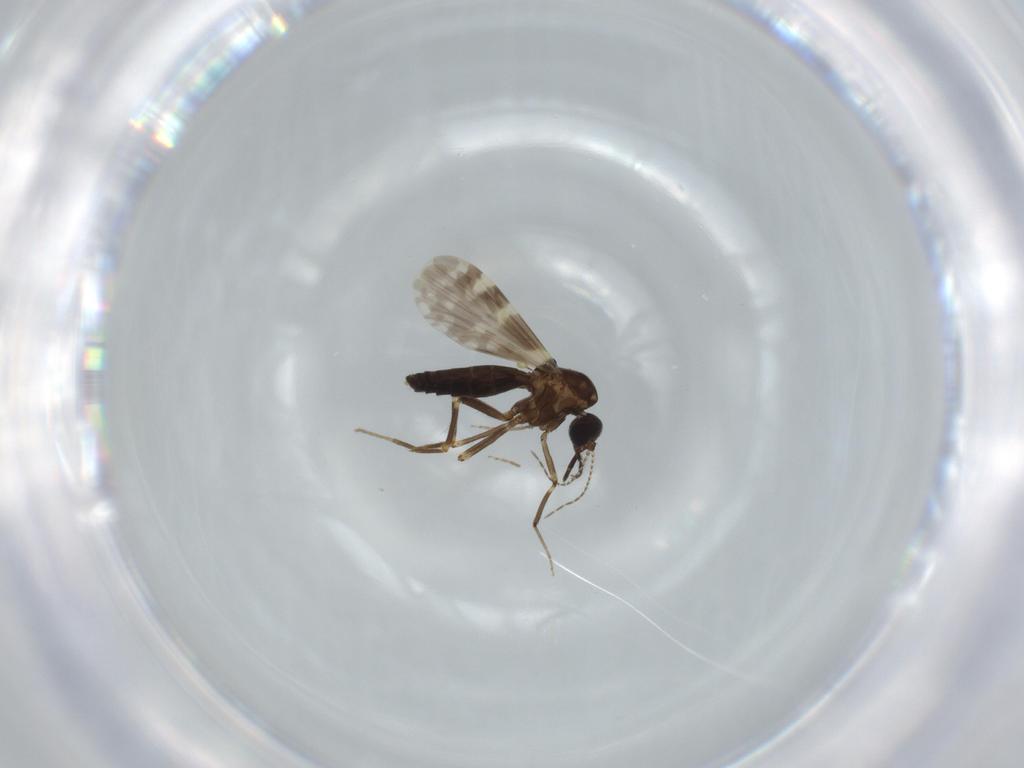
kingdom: Animalia
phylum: Arthropoda
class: Insecta
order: Diptera
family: Ceratopogonidae
